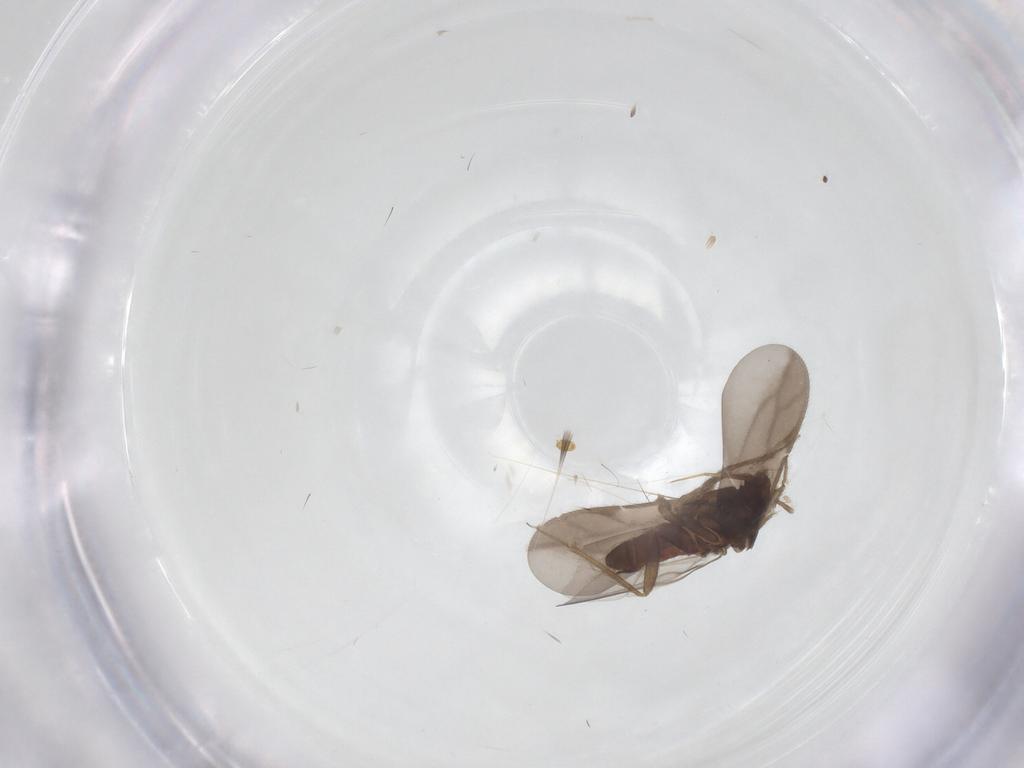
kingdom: Animalia
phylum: Arthropoda
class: Insecta
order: Hemiptera
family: Ceratocombidae
